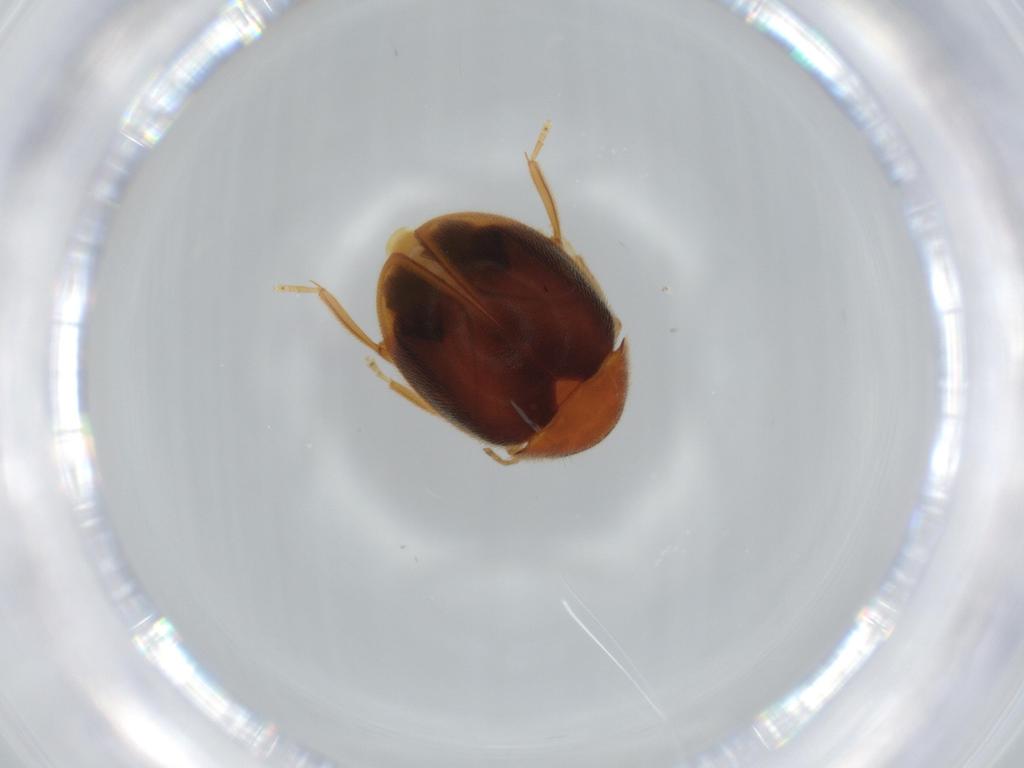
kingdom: Animalia
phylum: Arthropoda
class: Insecta
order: Coleoptera
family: Scirtidae
